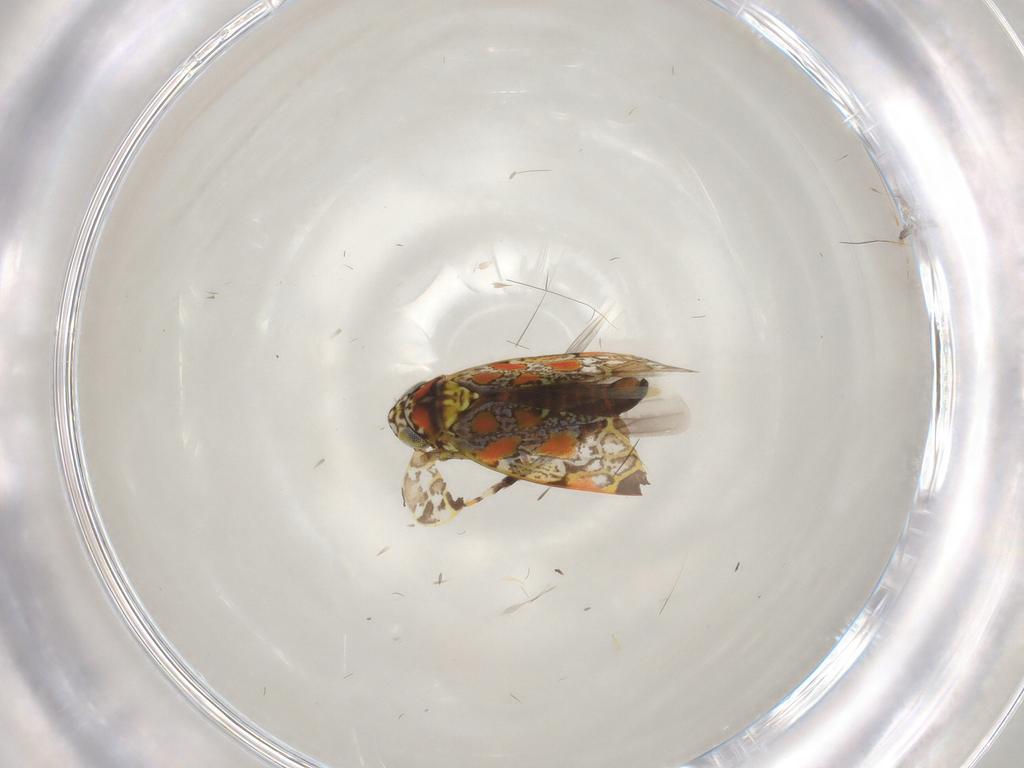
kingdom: Animalia
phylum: Arthropoda
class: Insecta
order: Hemiptera
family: Cicadellidae
